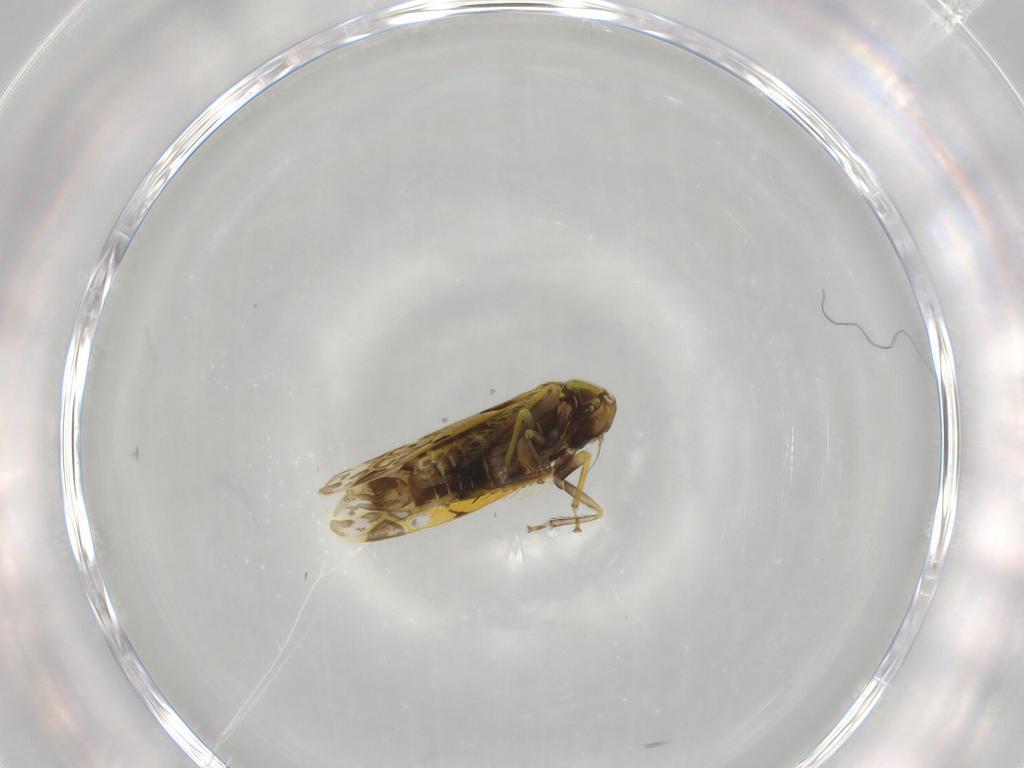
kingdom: Animalia
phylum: Arthropoda
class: Insecta
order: Hemiptera
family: Cicadellidae
